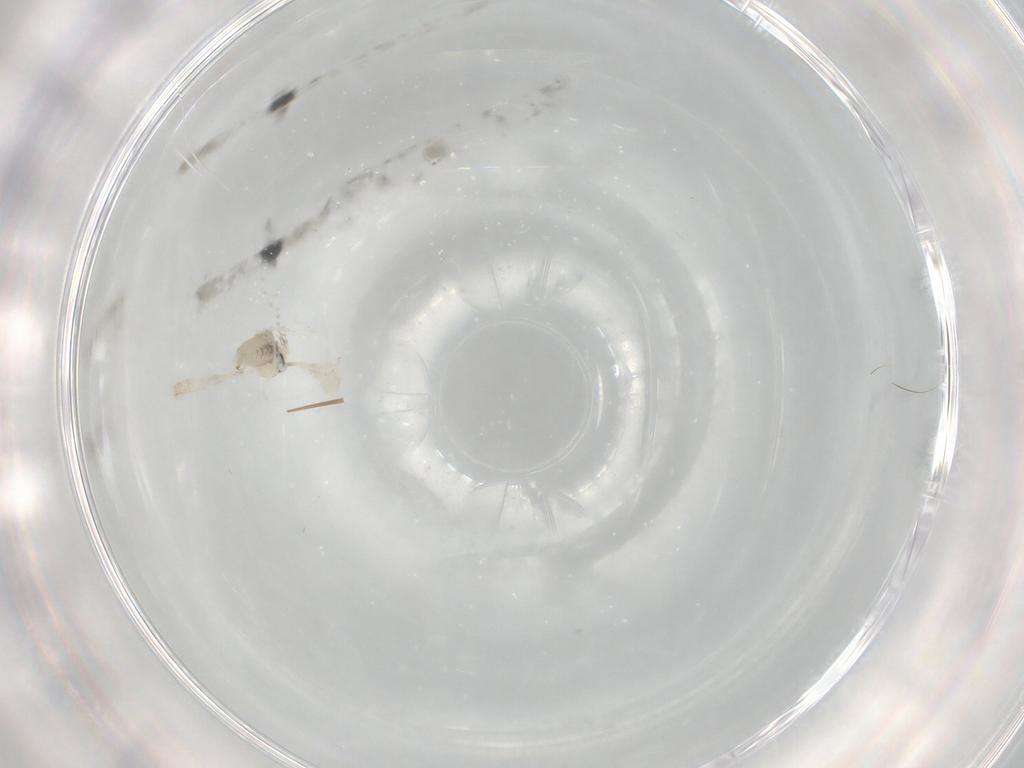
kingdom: Animalia
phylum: Arthropoda
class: Insecta
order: Diptera
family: Cecidomyiidae
